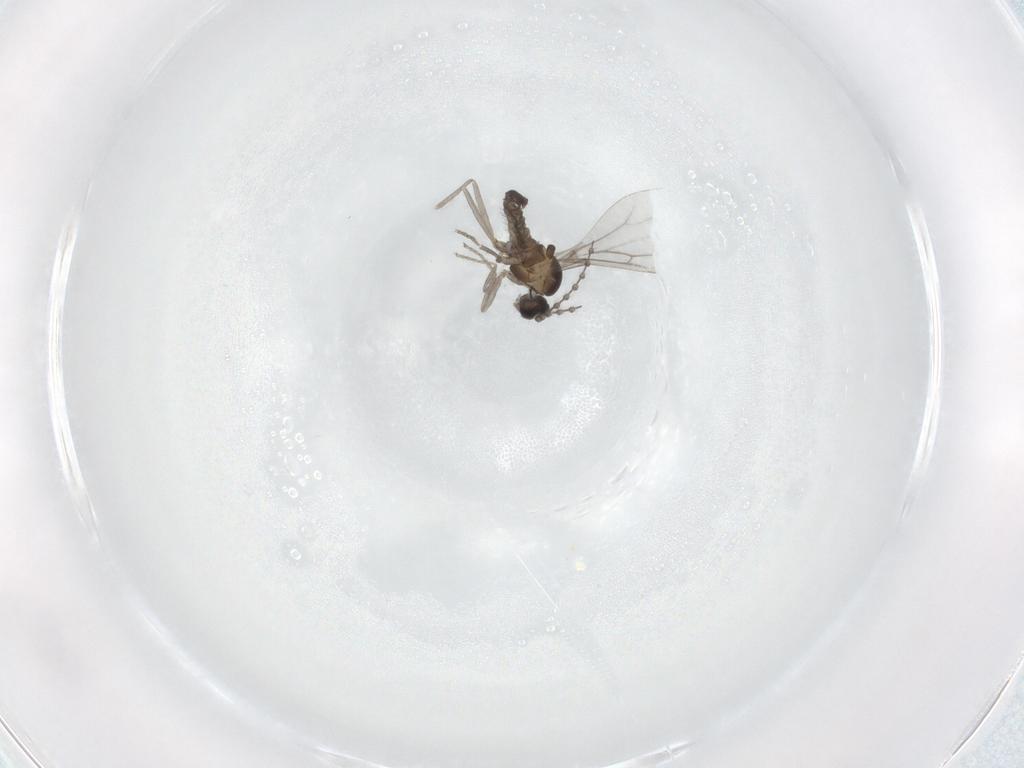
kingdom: Animalia
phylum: Arthropoda
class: Insecta
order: Diptera
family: Cecidomyiidae
